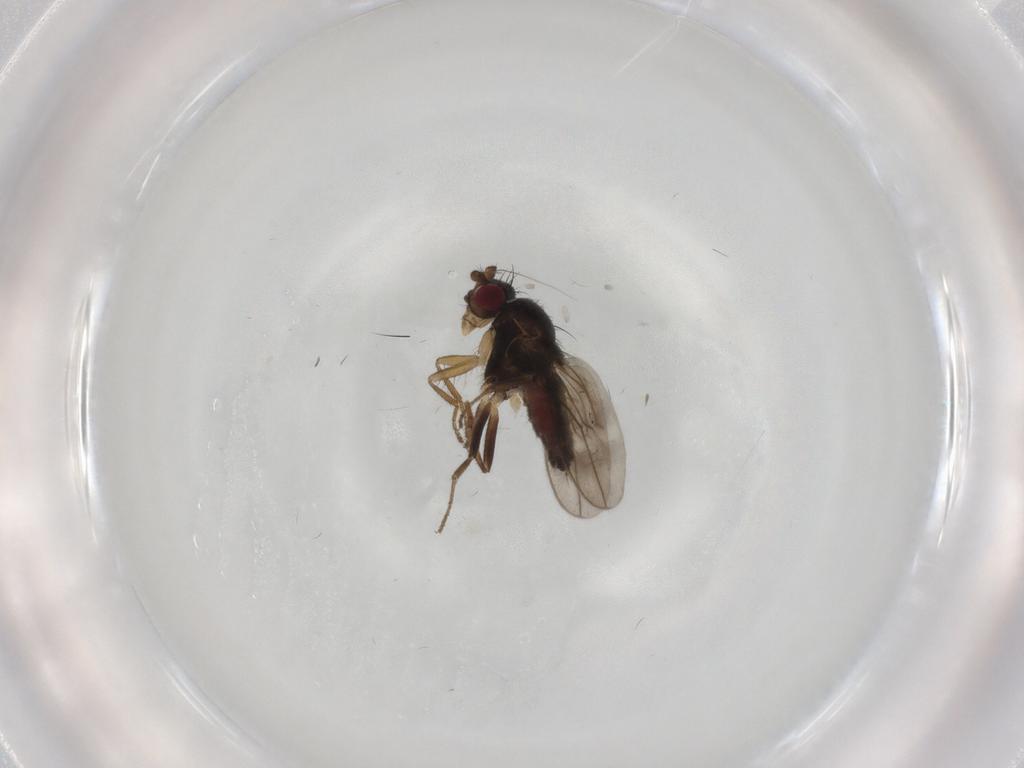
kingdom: Animalia
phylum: Arthropoda
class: Insecta
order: Diptera
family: Sphaeroceridae
